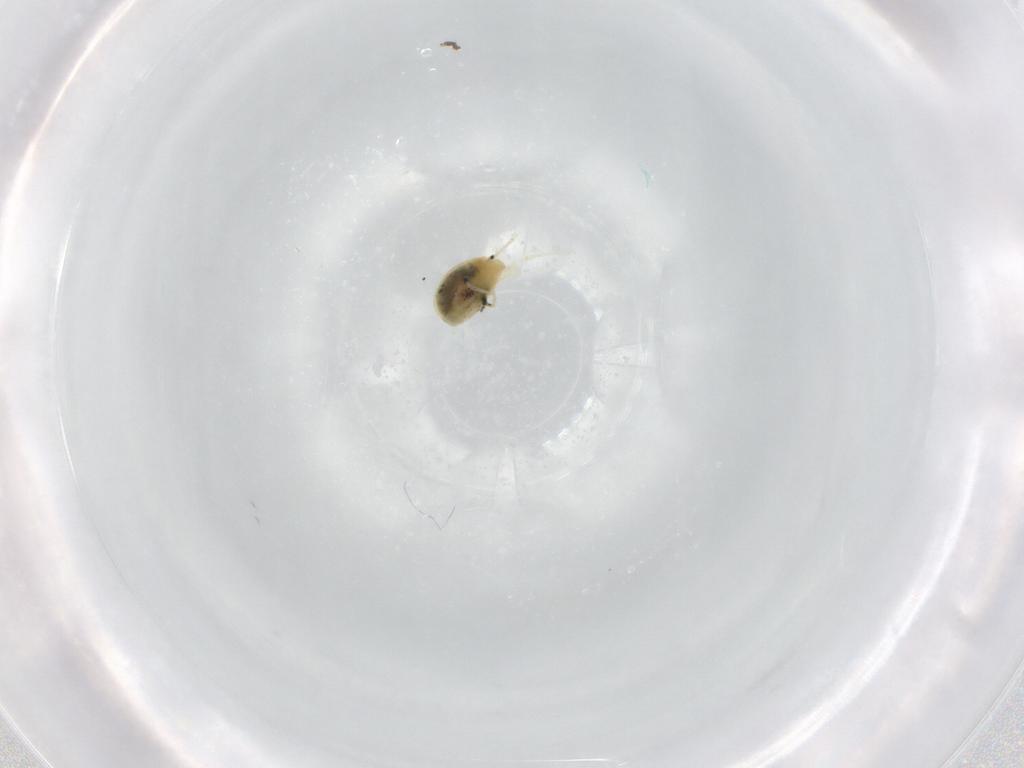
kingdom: Animalia
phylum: Arthropoda
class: Arachnida
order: Trombidiformes
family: Tetranychidae
